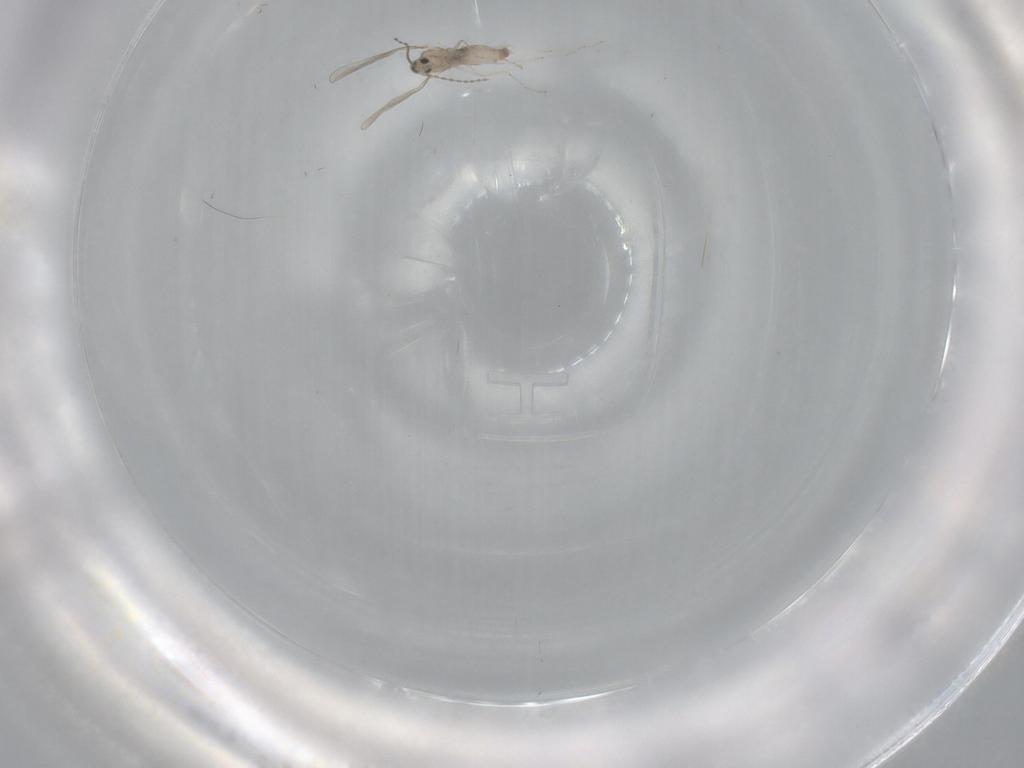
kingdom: Animalia
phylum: Arthropoda
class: Insecta
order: Diptera
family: Cecidomyiidae
